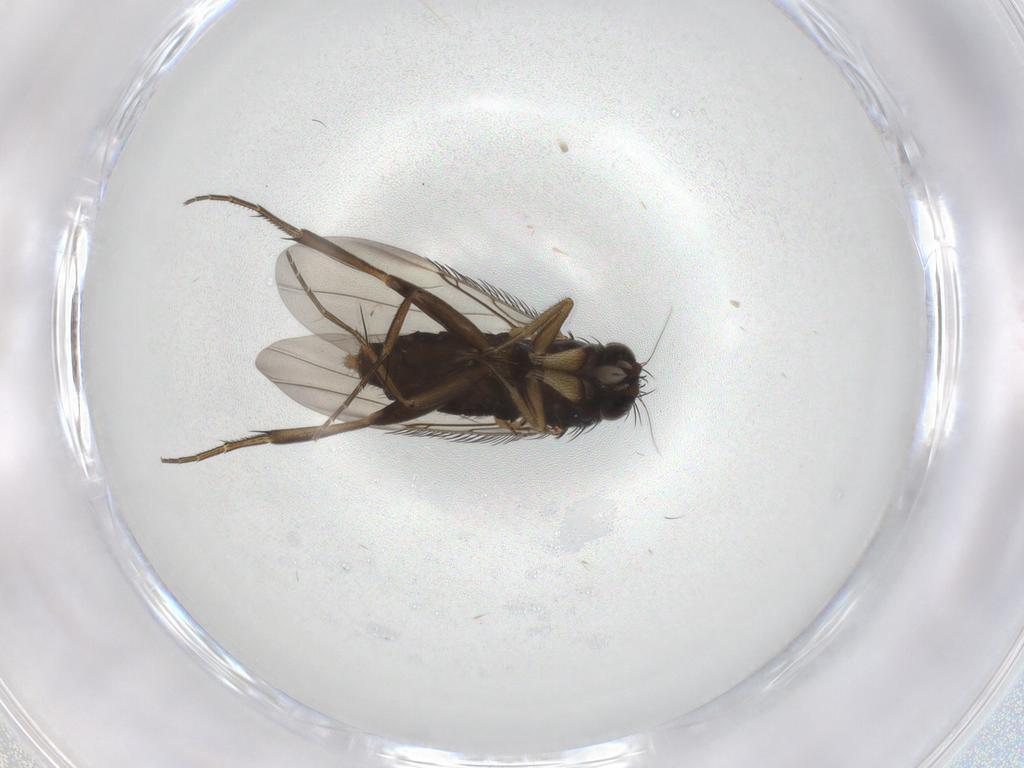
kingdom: Animalia
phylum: Arthropoda
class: Insecta
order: Diptera
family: Phoridae
